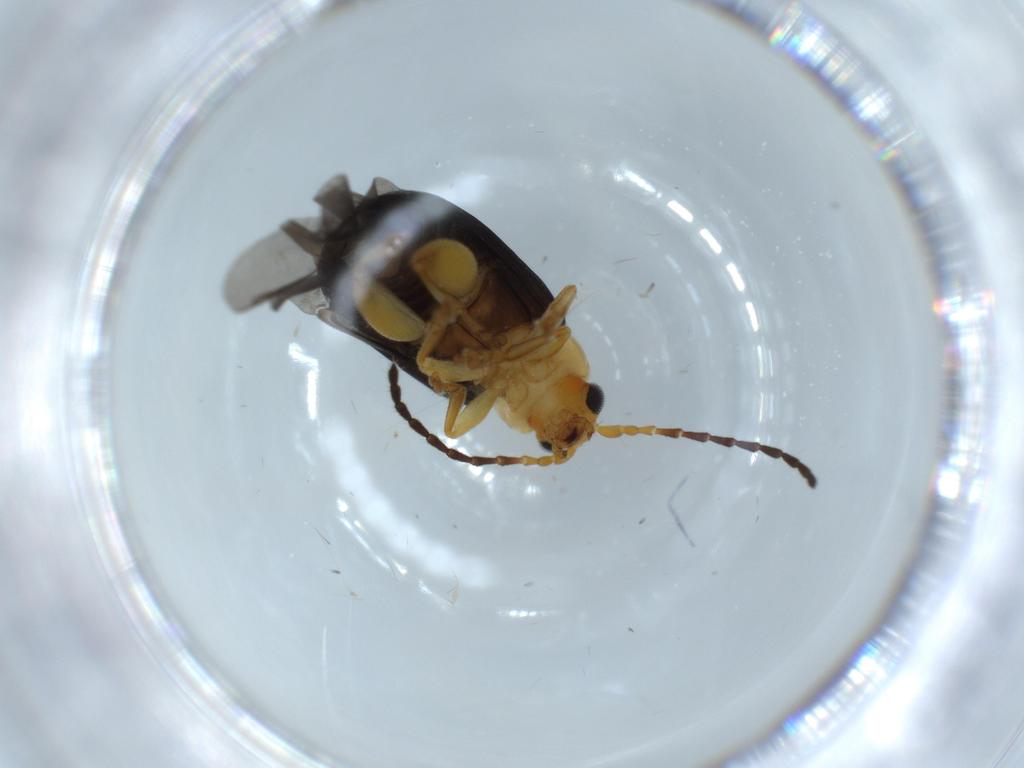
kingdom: Animalia
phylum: Arthropoda
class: Insecta
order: Coleoptera
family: Chrysomelidae
